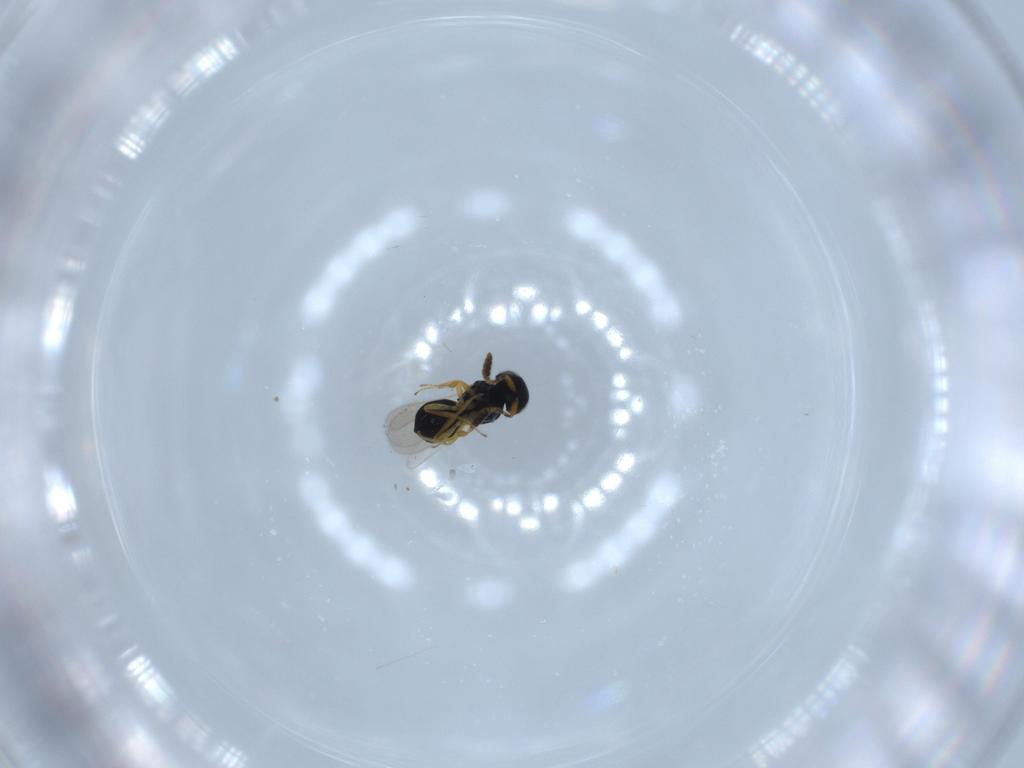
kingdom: Animalia
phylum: Arthropoda
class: Insecta
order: Hymenoptera
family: Scelionidae
